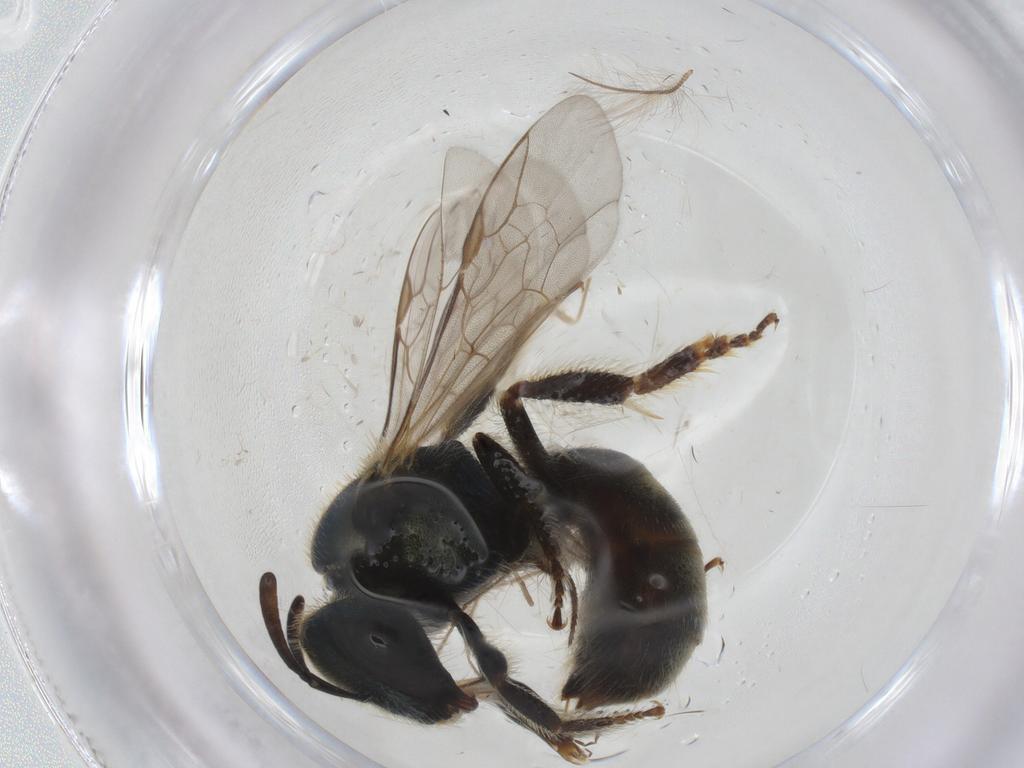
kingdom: Animalia
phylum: Arthropoda
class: Insecta
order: Hymenoptera
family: Halictidae
